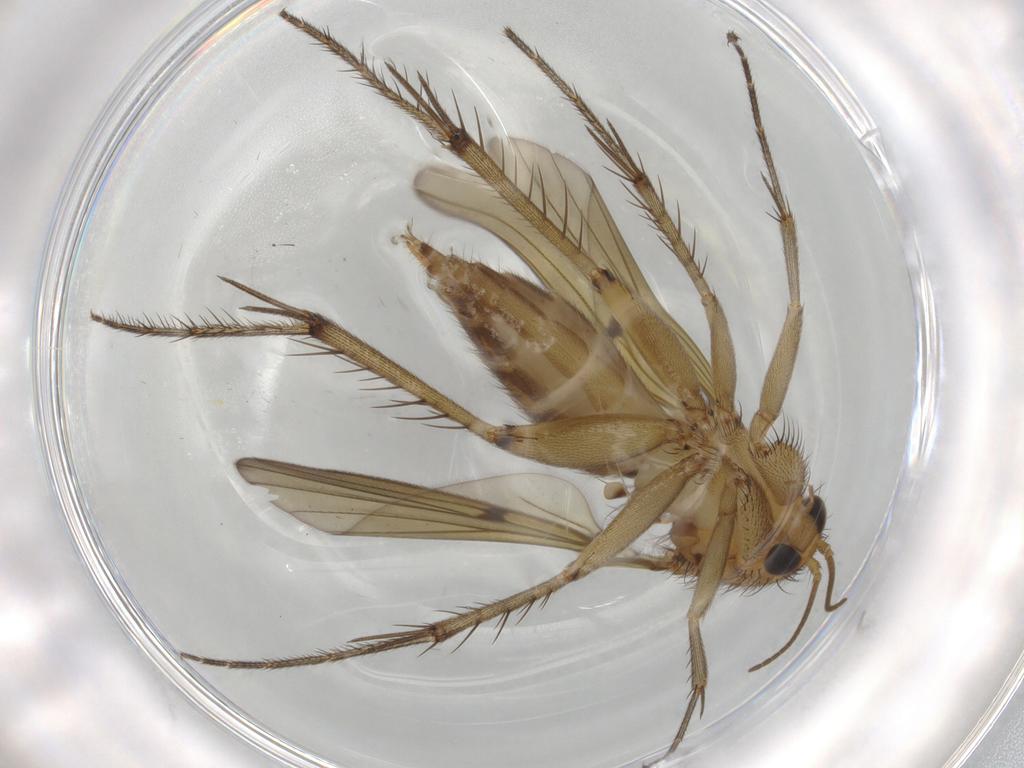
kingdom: Animalia
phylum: Arthropoda
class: Insecta
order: Diptera
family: Mycetophilidae
